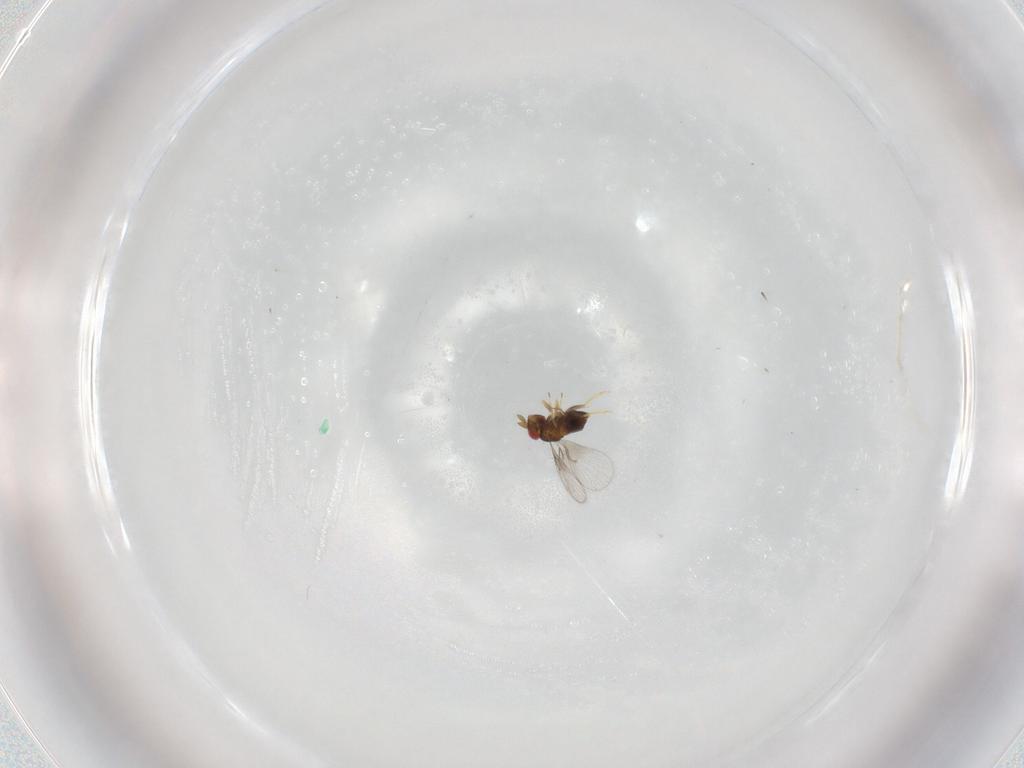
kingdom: Animalia
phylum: Arthropoda
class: Insecta
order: Hymenoptera
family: Trichogrammatidae
